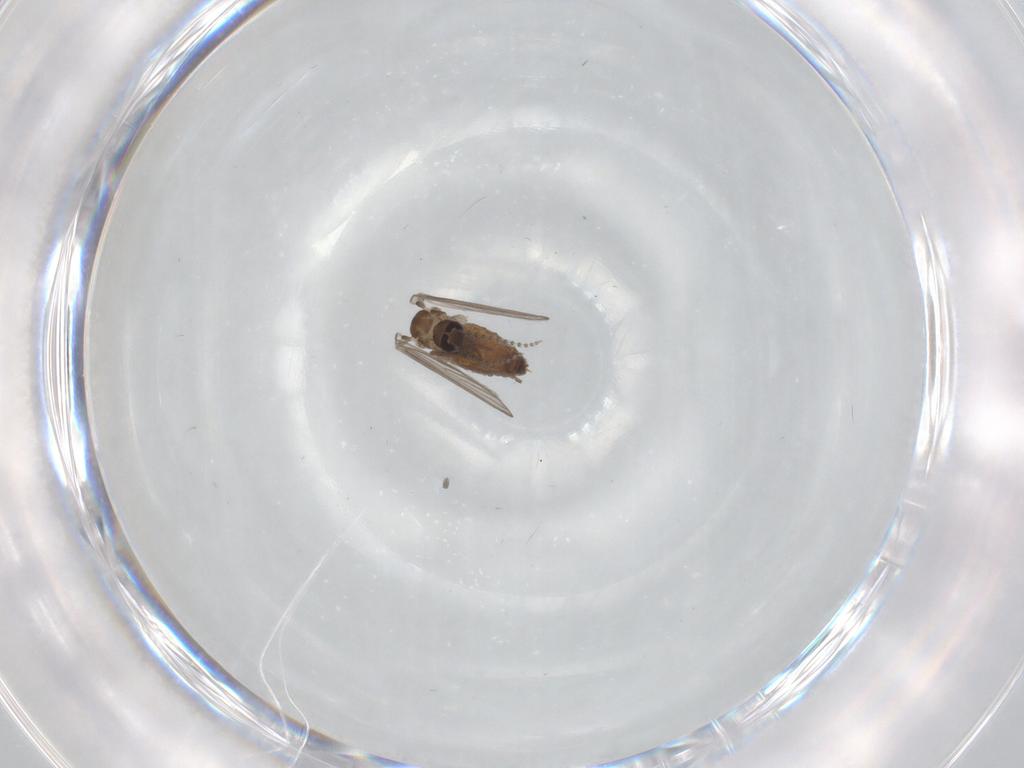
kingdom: Animalia
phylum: Arthropoda
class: Insecta
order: Diptera
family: Psychodidae
